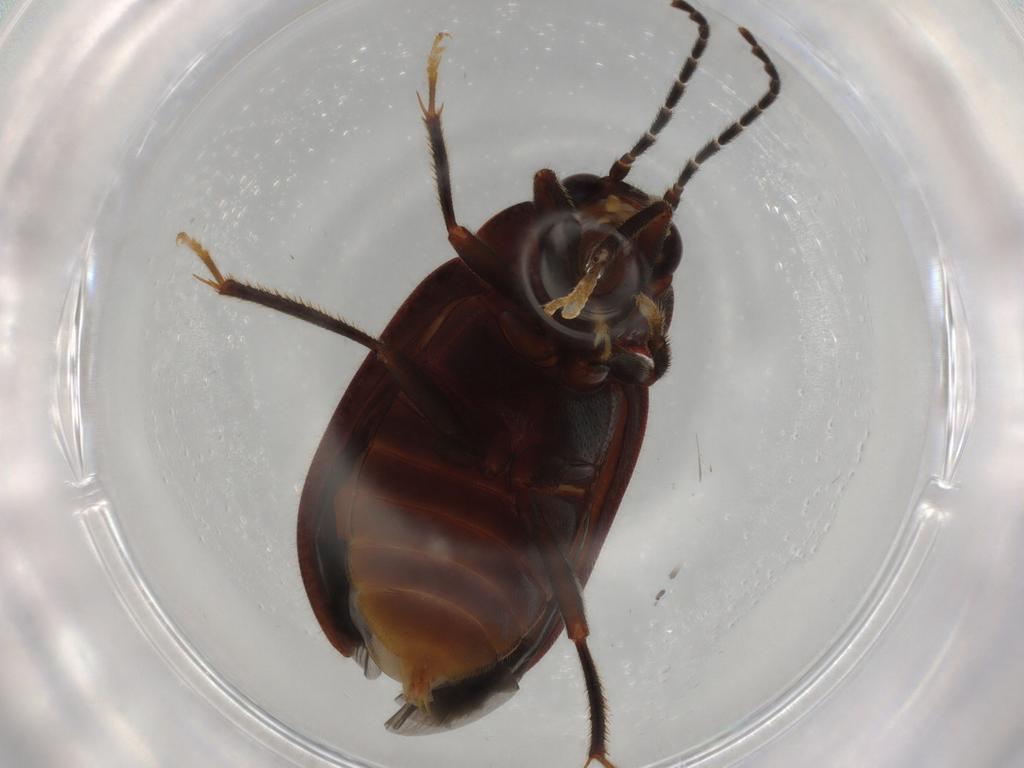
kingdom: Animalia
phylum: Arthropoda
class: Insecta
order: Coleoptera
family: Ptilodactylidae
